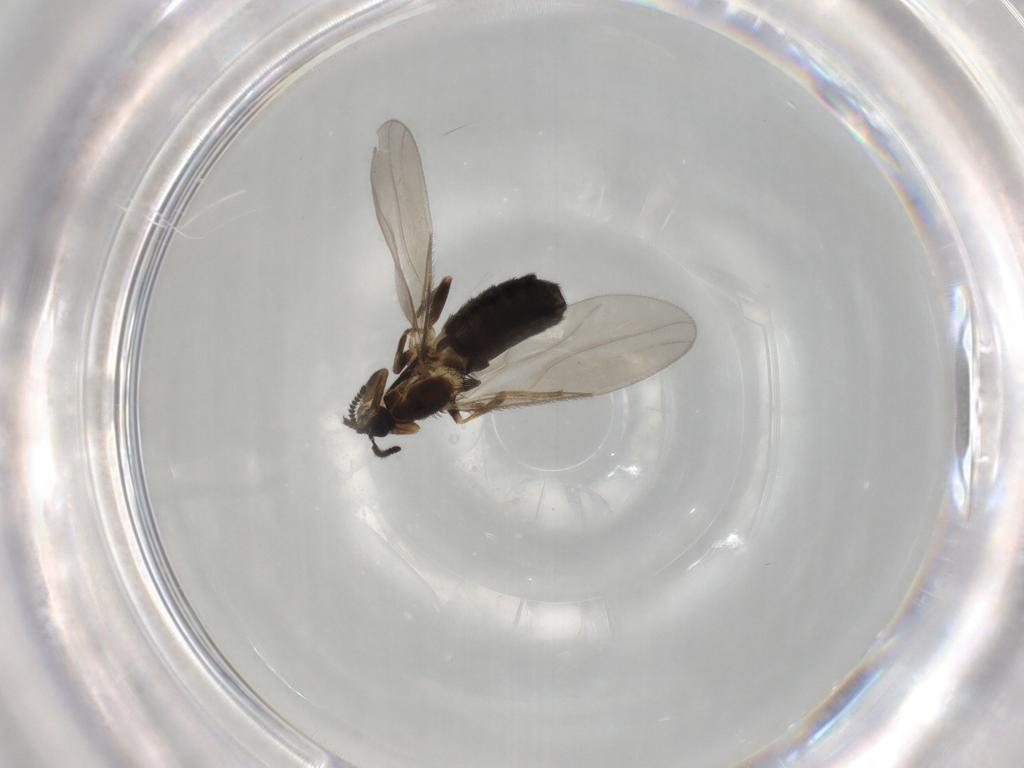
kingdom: Animalia
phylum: Arthropoda
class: Insecta
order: Diptera
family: Scatopsidae
